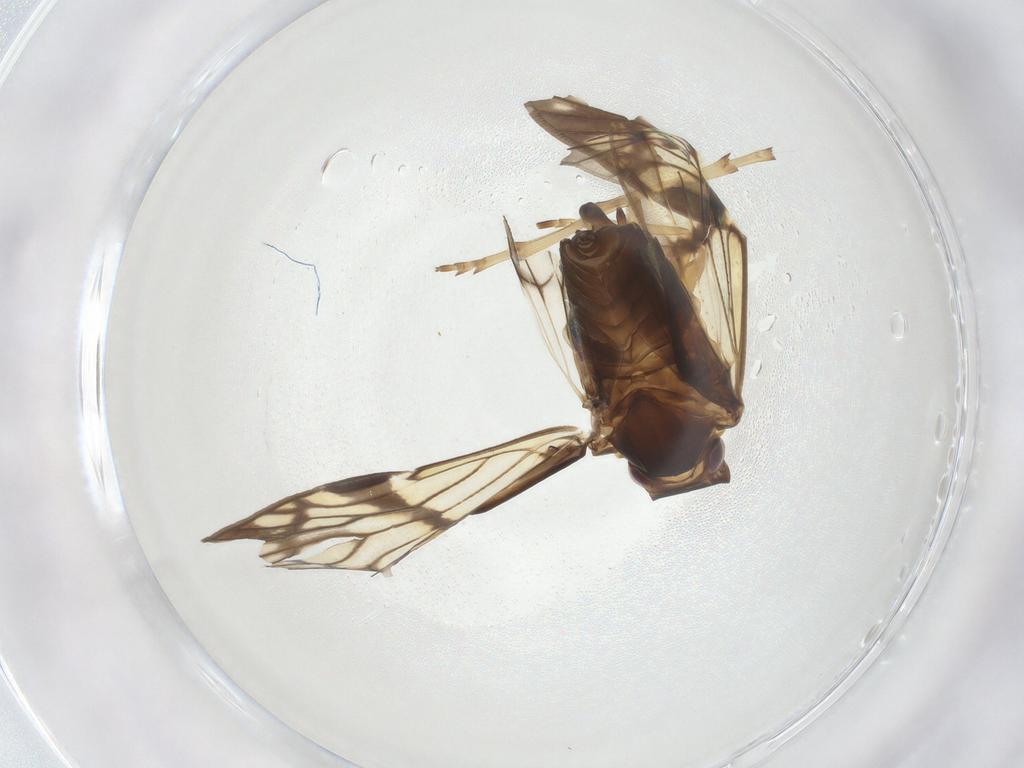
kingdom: Animalia
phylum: Arthropoda
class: Insecta
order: Hemiptera
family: Cixiidae
